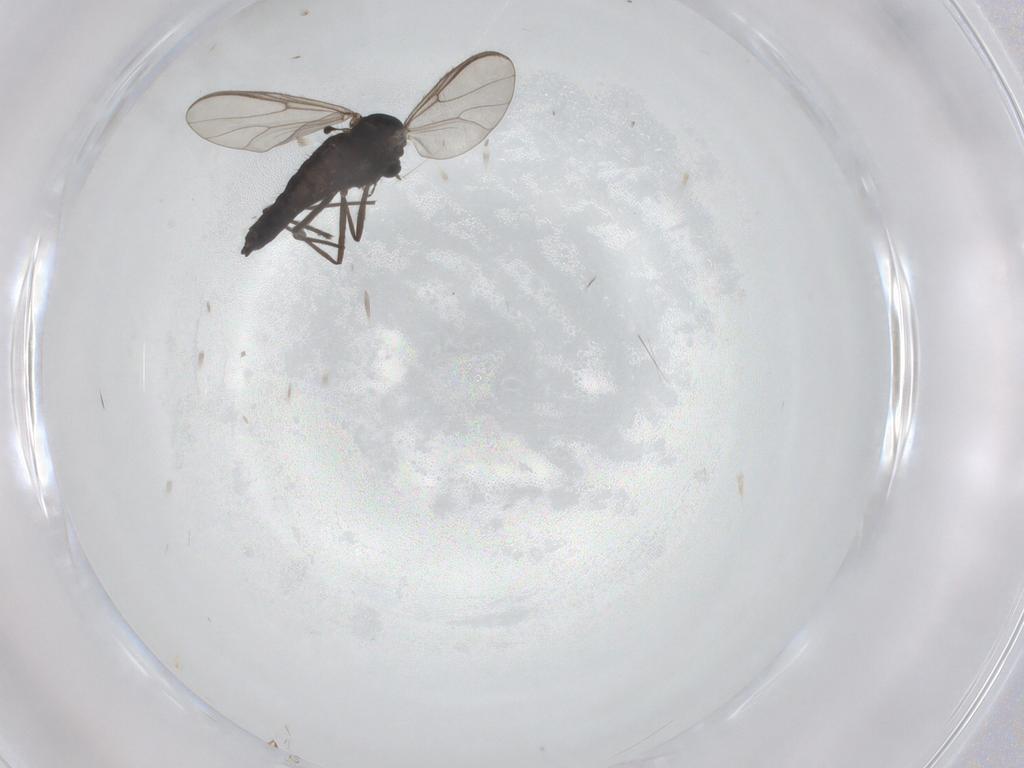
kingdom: Animalia
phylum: Arthropoda
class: Insecta
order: Diptera
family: Chironomidae
